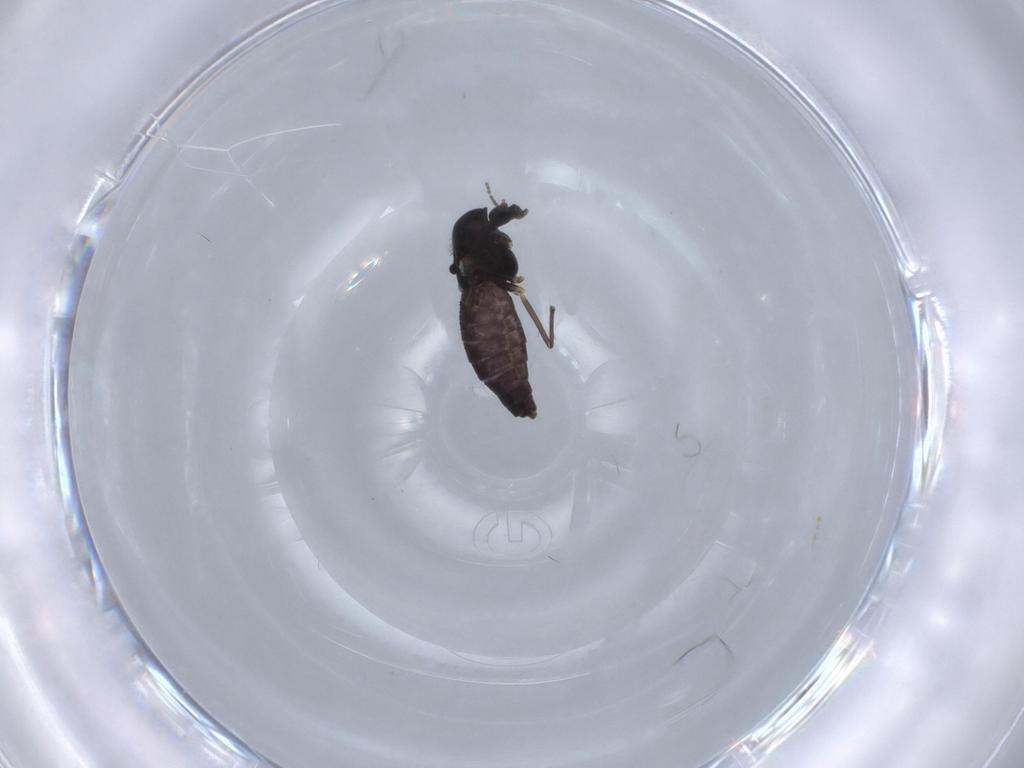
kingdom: Animalia
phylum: Arthropoda
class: Insecta
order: Diptera
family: Chironomidae
